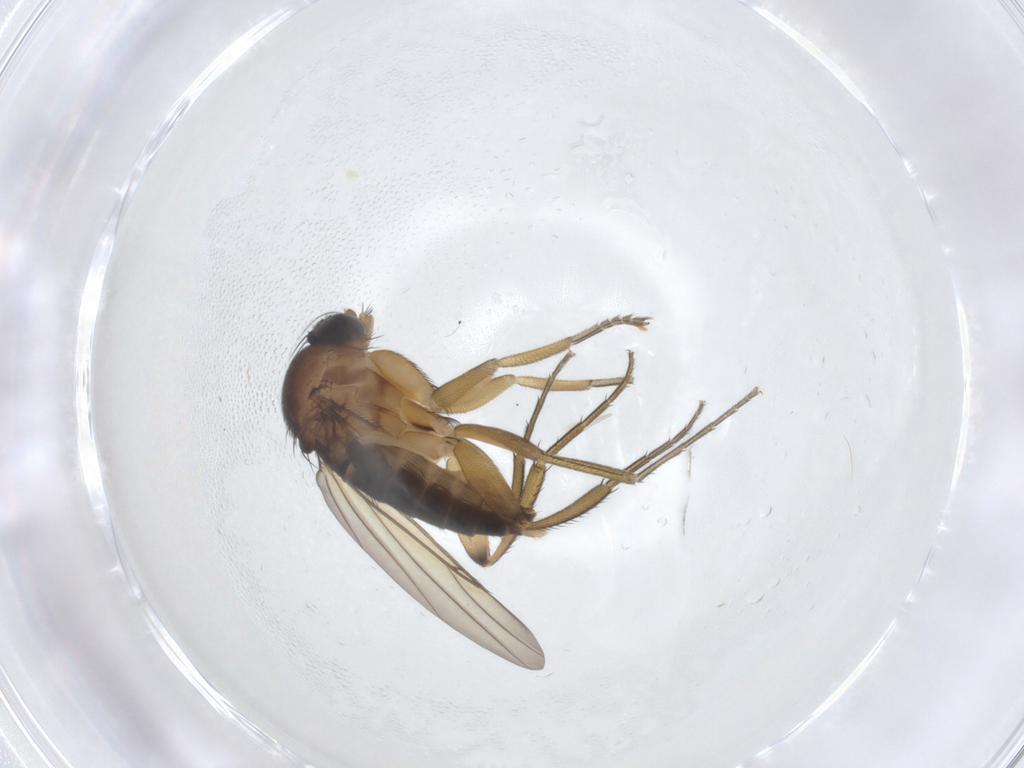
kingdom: Animalia
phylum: Arthropoda
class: Insecta
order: Diptera
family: Phoridae
